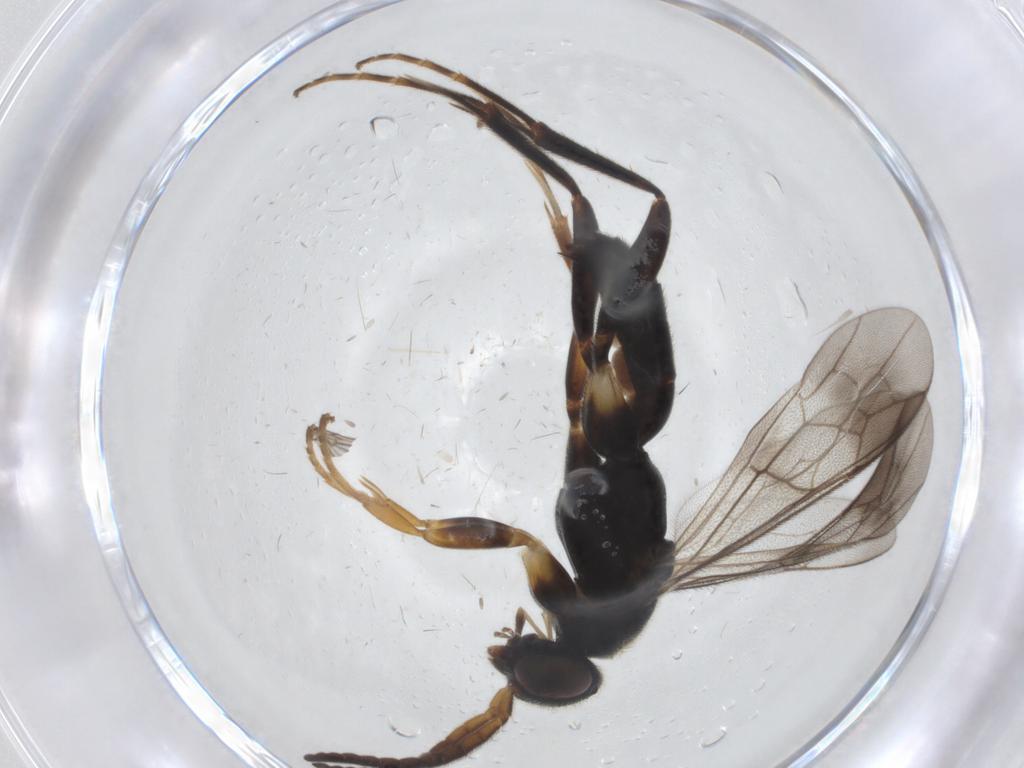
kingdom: Animalia
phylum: Arthropoda
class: Insecta
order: Hymenoptera
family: Pompilidae
